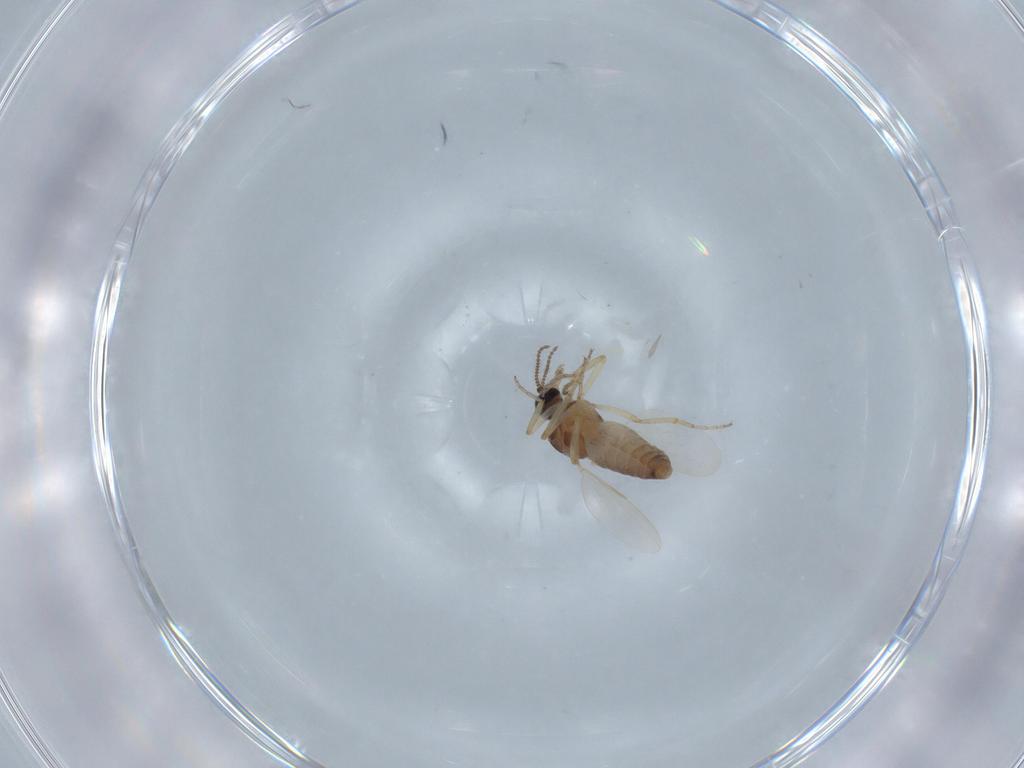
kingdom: Animalia
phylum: Arthropoda
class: Insecta
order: Diptera
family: Ceratopogonidae
